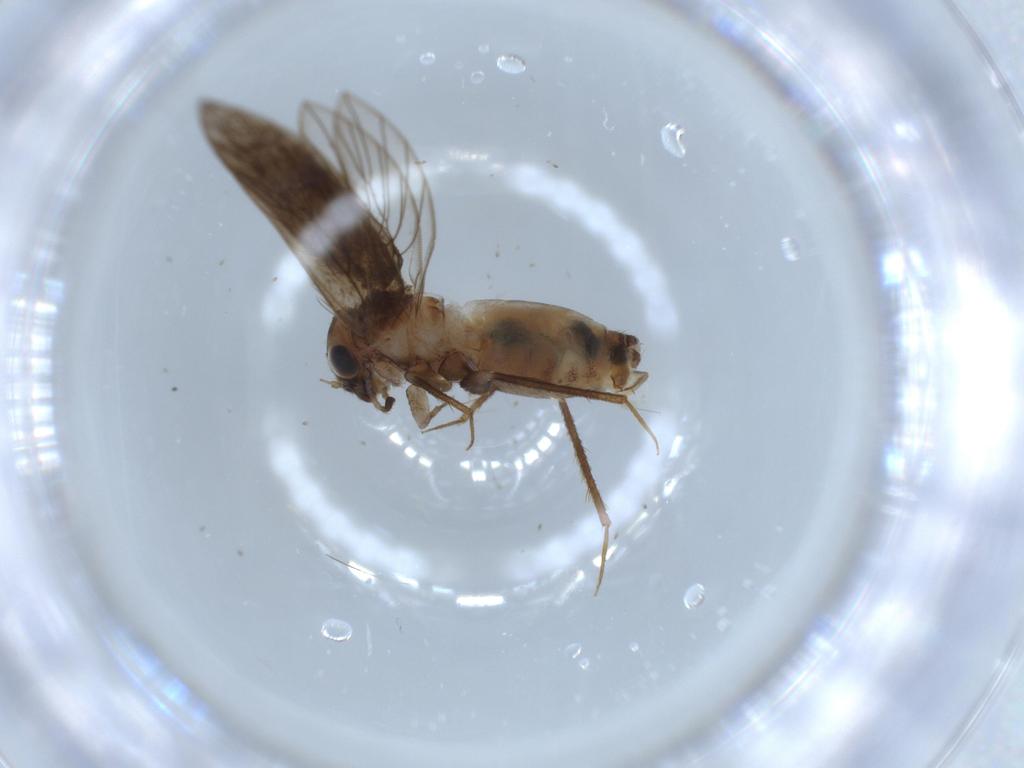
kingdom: Animalia
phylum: Arthropoda
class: Insecta
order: Psocodea
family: Lepidopsocidae
